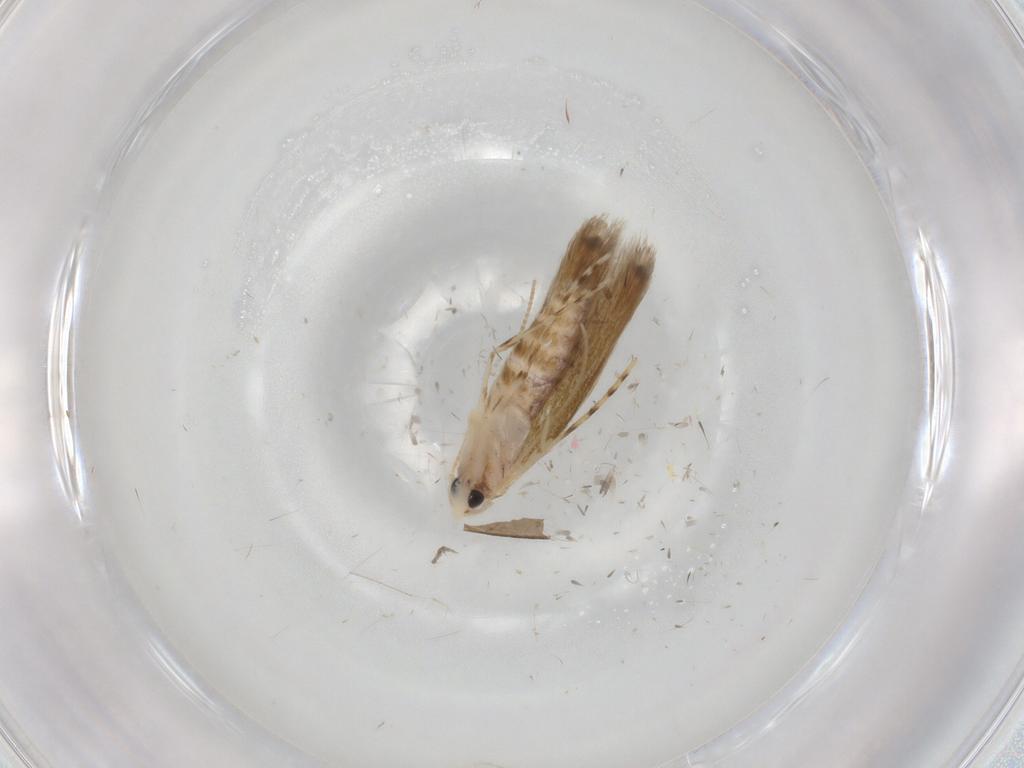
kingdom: Animalia
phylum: Arthropoda
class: Insecta
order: Lepidoptera
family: Lyonetiidae
